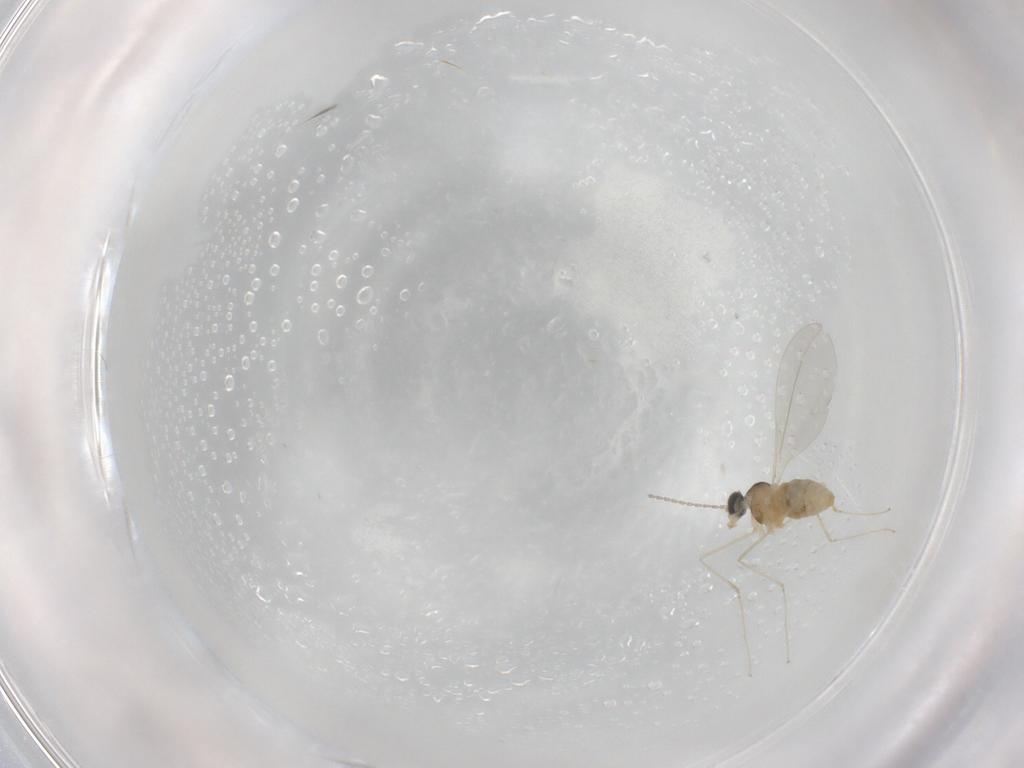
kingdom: Animalia
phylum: Arthropoda
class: Insecta
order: Diptera
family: Cecidomyiidae
